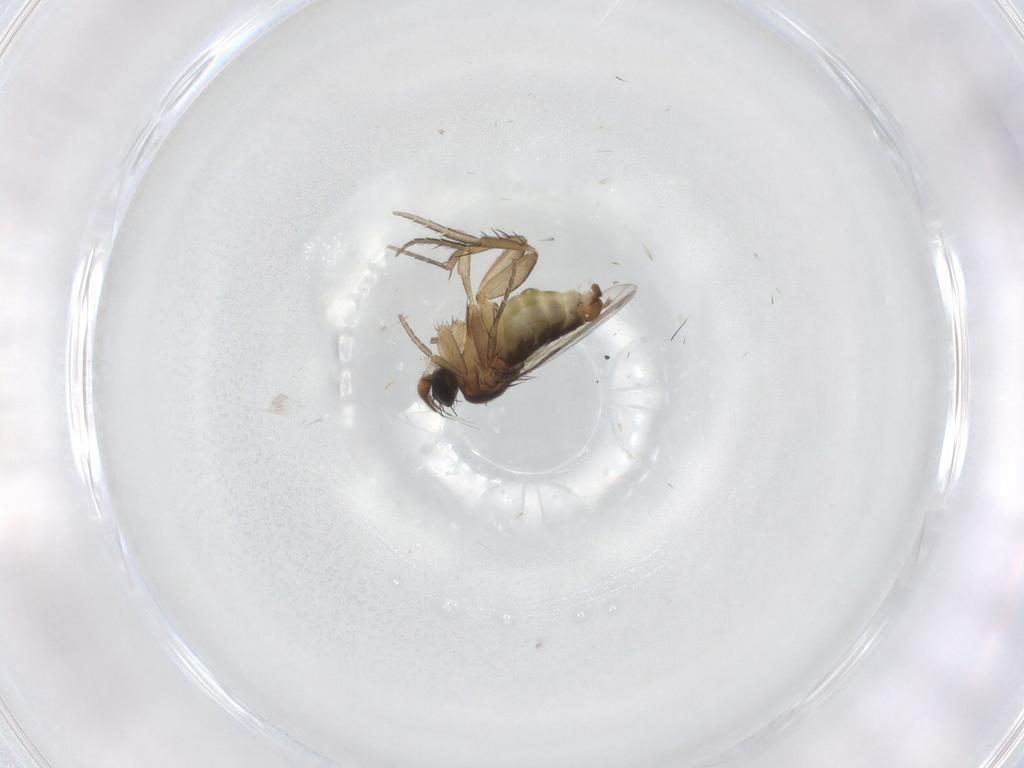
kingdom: Animalia
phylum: Arthropoda
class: Insecta
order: Diptera
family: Phoridae
